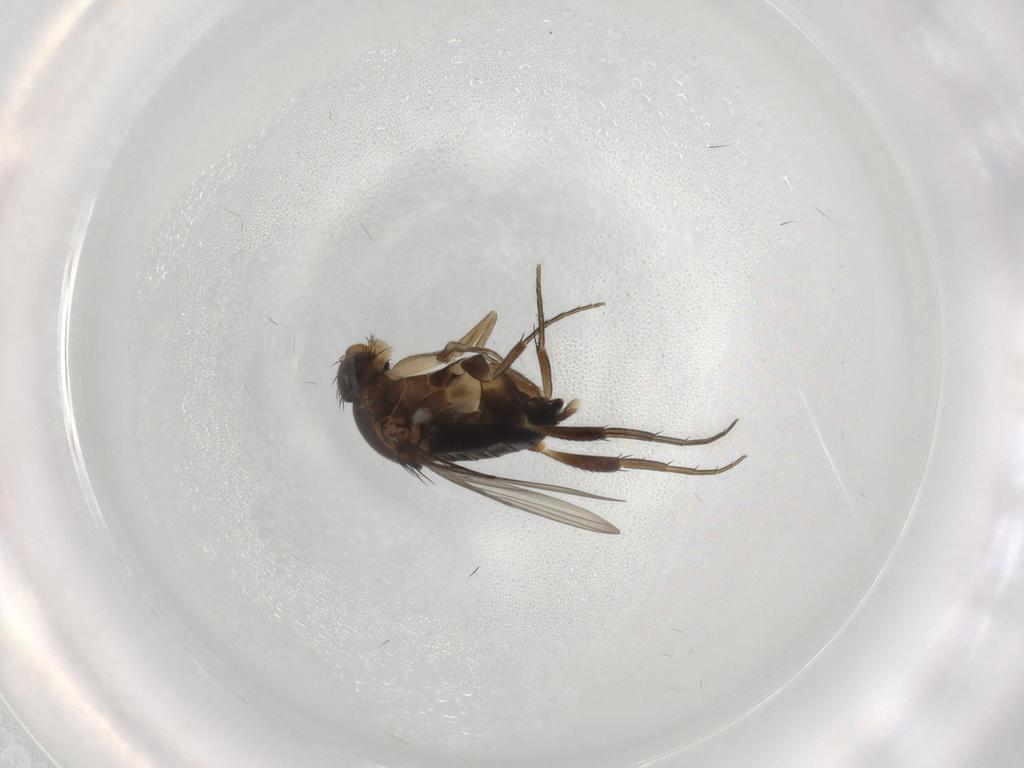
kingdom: Animalia
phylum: Arthropoda
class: Insecta
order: Diptera
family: Phoridae
